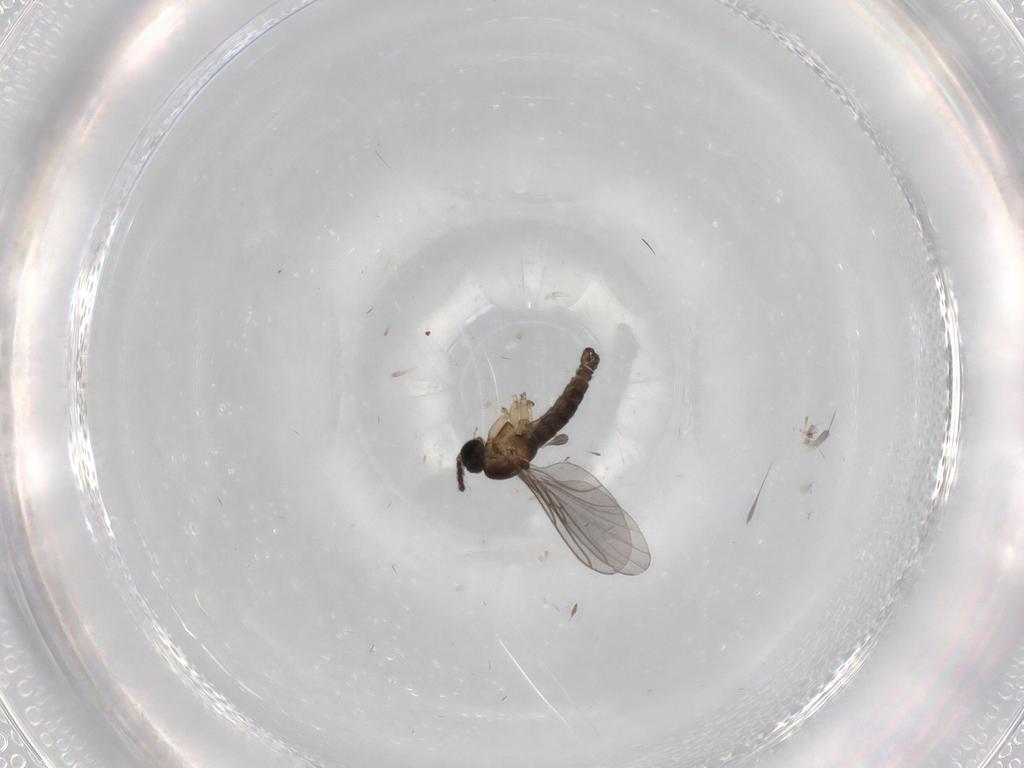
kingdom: Animalia
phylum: Arthropoda
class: Insecta
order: Diptera
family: Sciaridae
